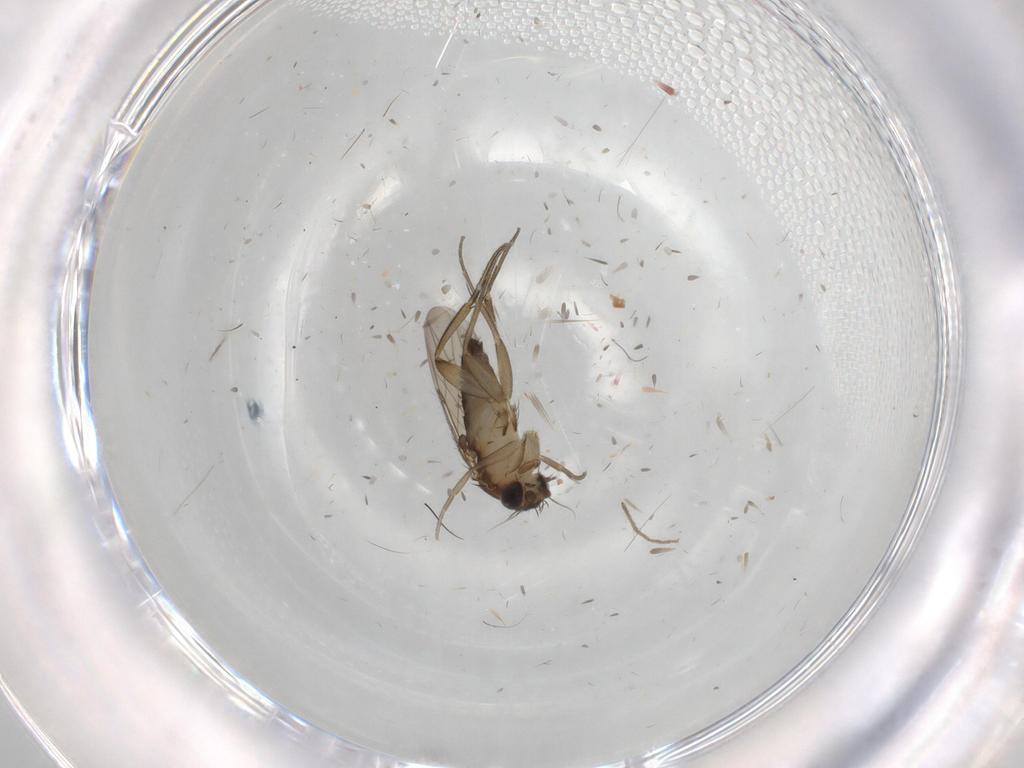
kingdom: Animalia
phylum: Arthropoda
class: Insecta
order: Diptera
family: Phoridae
